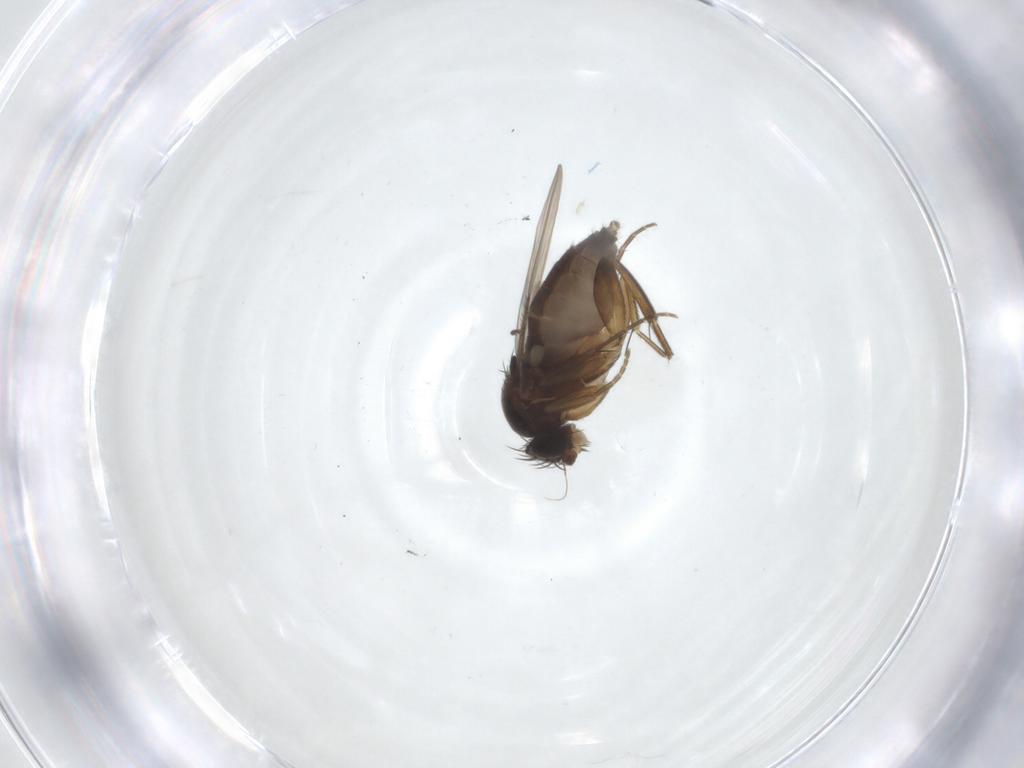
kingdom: Animalia
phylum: Arthropoda
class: Insecta
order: Diptera
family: Phoridae
